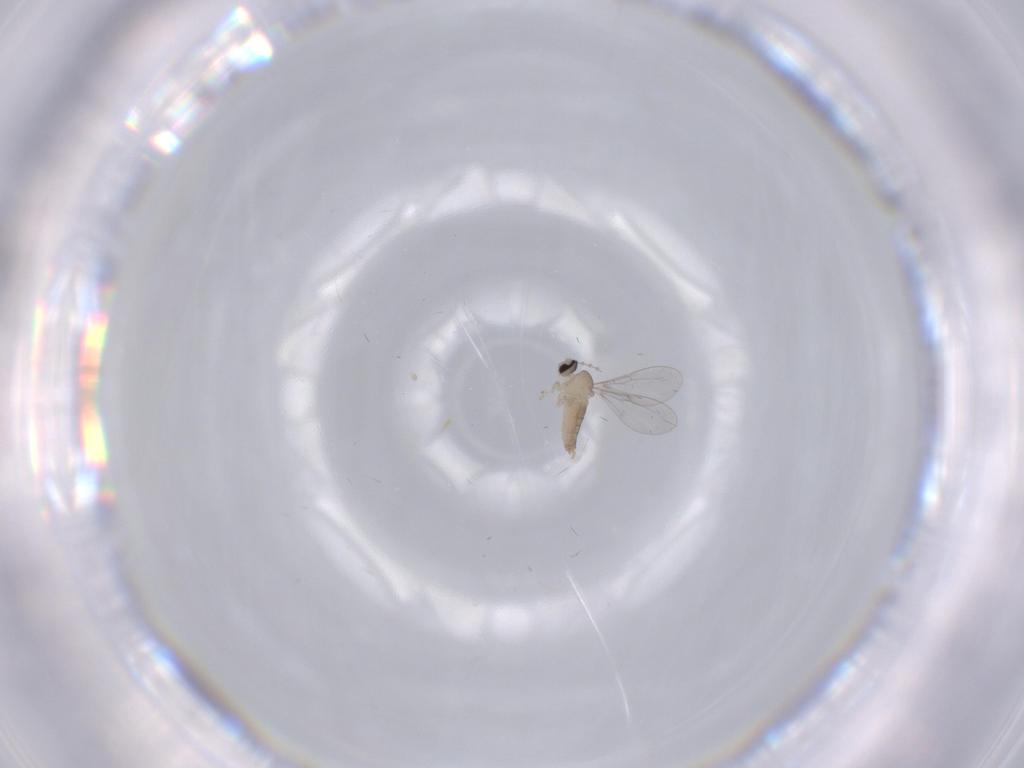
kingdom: Animalia
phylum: Arthropoda
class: Insecta
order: Diptera
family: Cecidomyiidae
